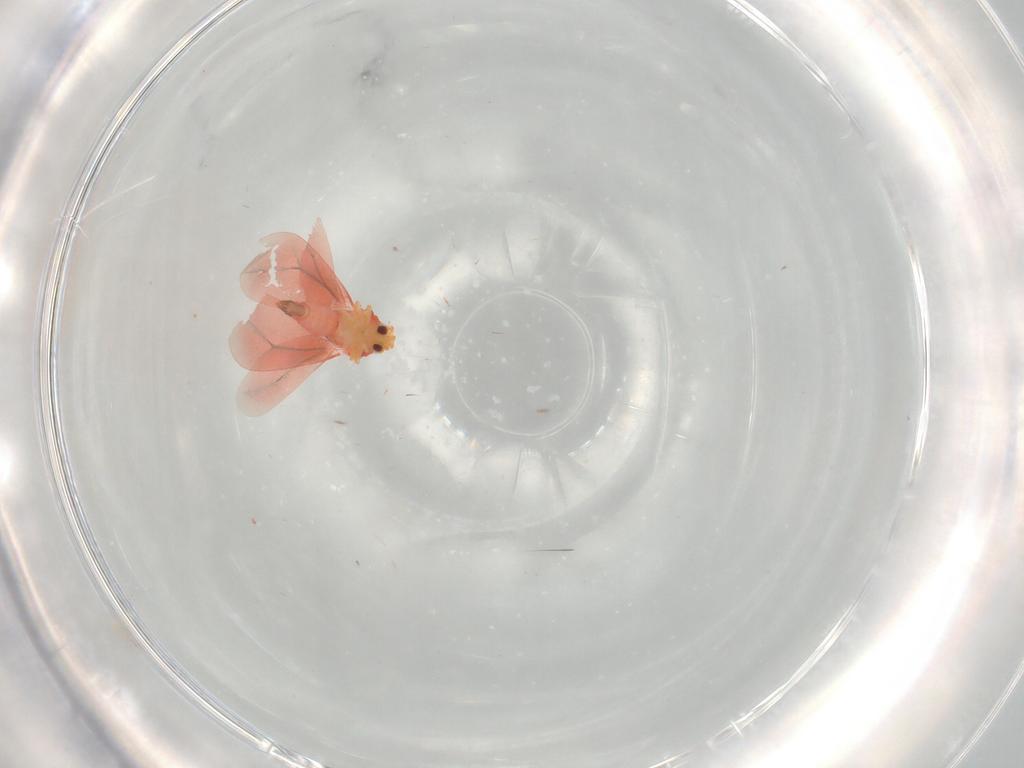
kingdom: Animalia
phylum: Arthropoda
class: Insecta
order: Hemiptera
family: Aleyrodidae
